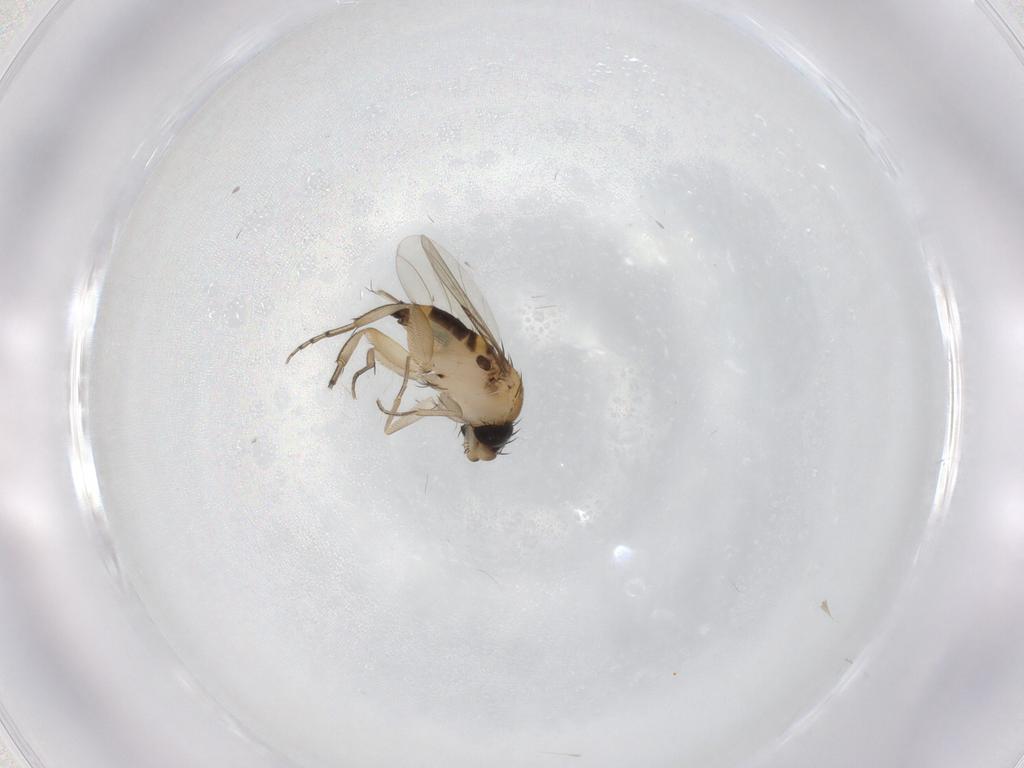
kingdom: Animalia
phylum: Arthropoda
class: Insecta
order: Diptera
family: Phoridae
